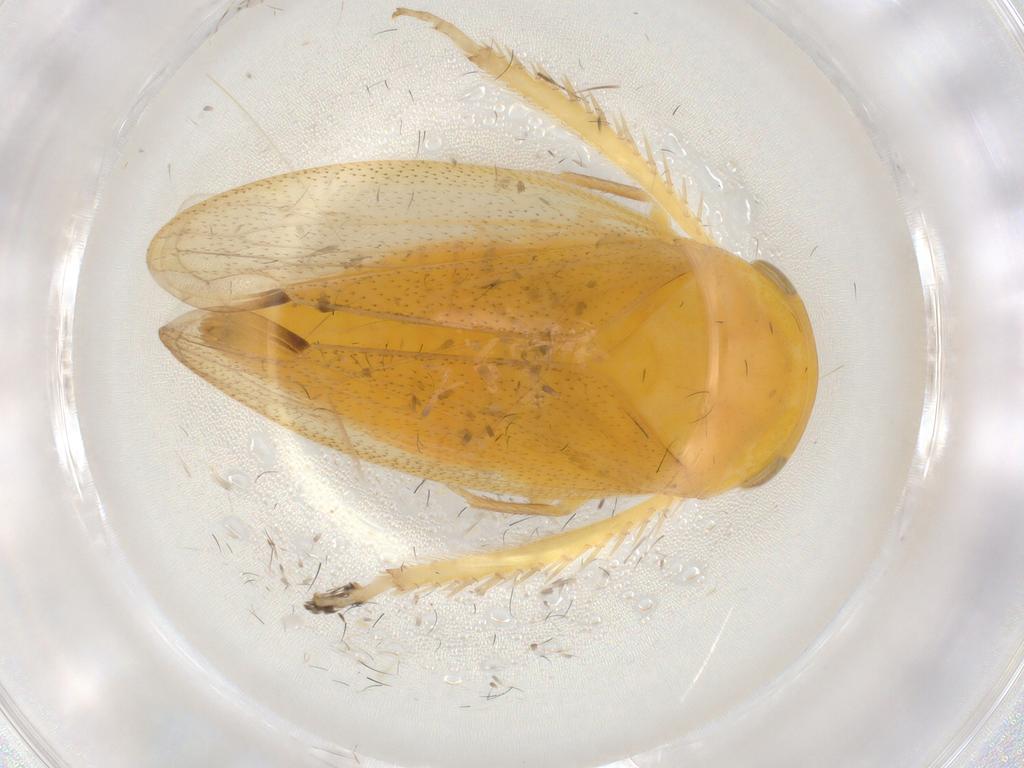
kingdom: Animalia
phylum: Arthropoda
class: Insecta
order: Hemiptera
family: Cicadellidae
